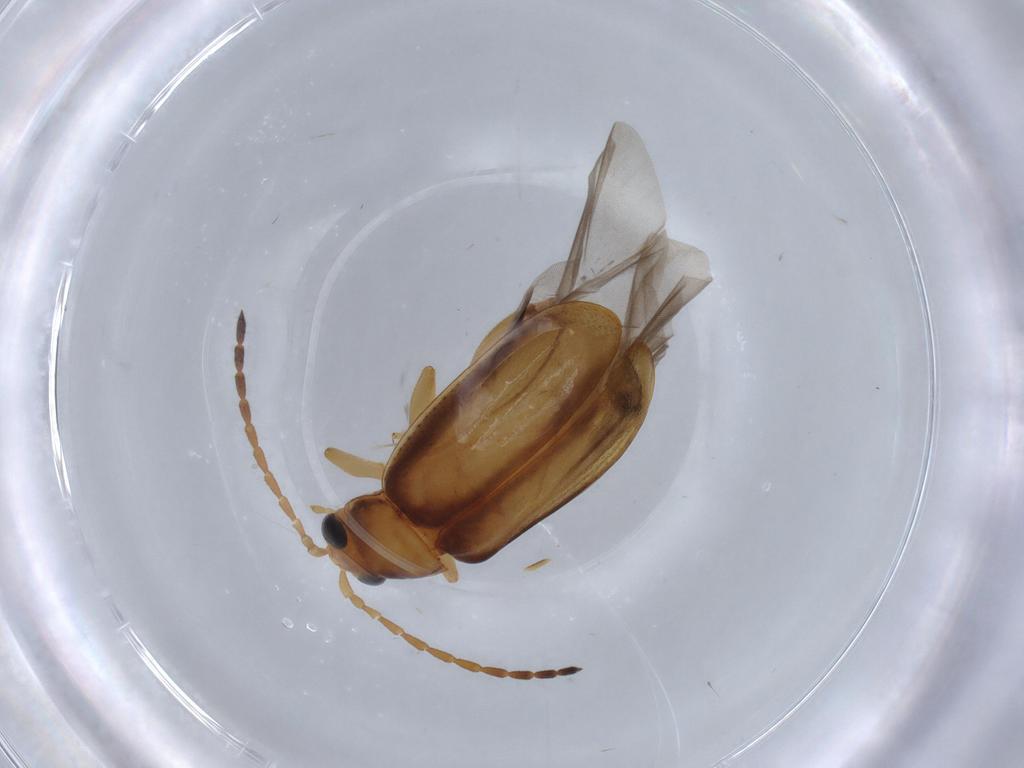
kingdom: Animalia
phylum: Arthropoda
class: Insecta
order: Coleoptera
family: Chrysomelidae
